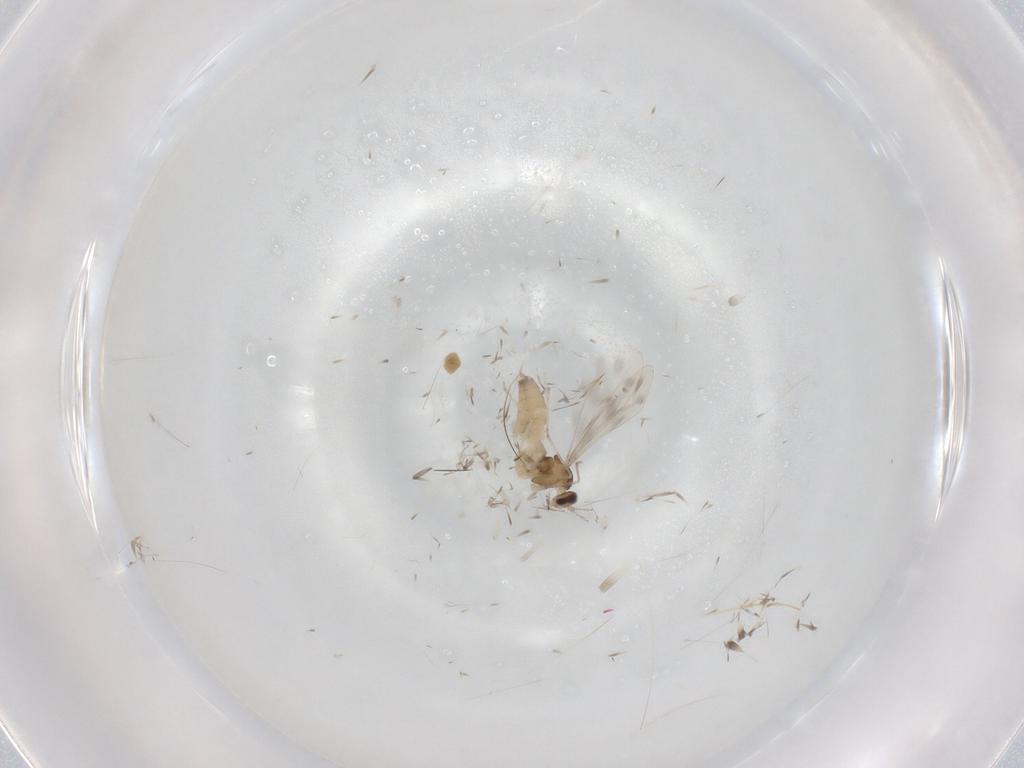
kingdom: Animalia
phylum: Arthropoda
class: Insecta
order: Diptera
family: Cecidomyiidae
